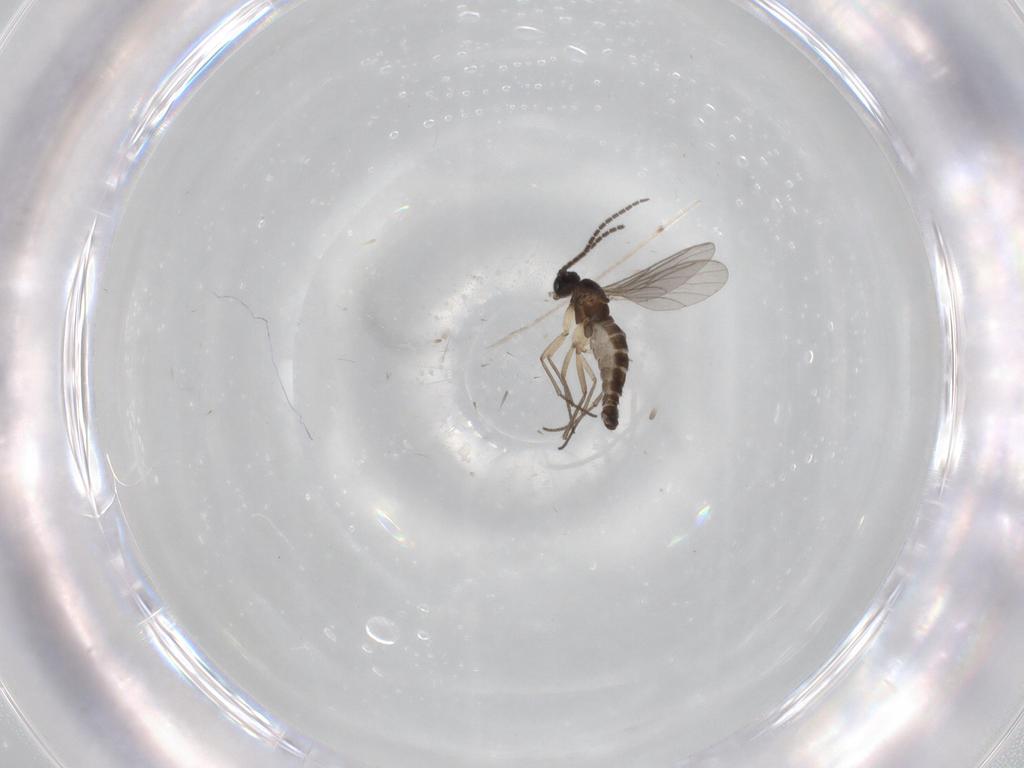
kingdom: Animalia
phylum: Arthropoda
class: Insecta
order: Diptera
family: Sciaridae
